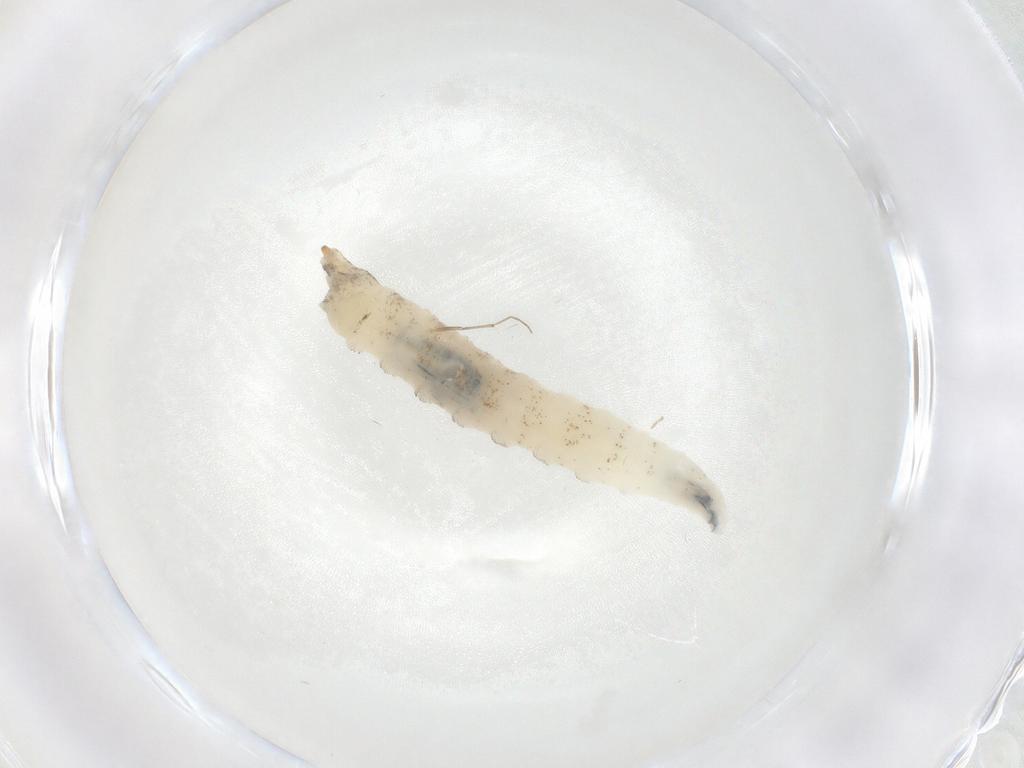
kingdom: Animalia
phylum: Arthropoda
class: Insecta
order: Diptera
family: Drosophilidae
